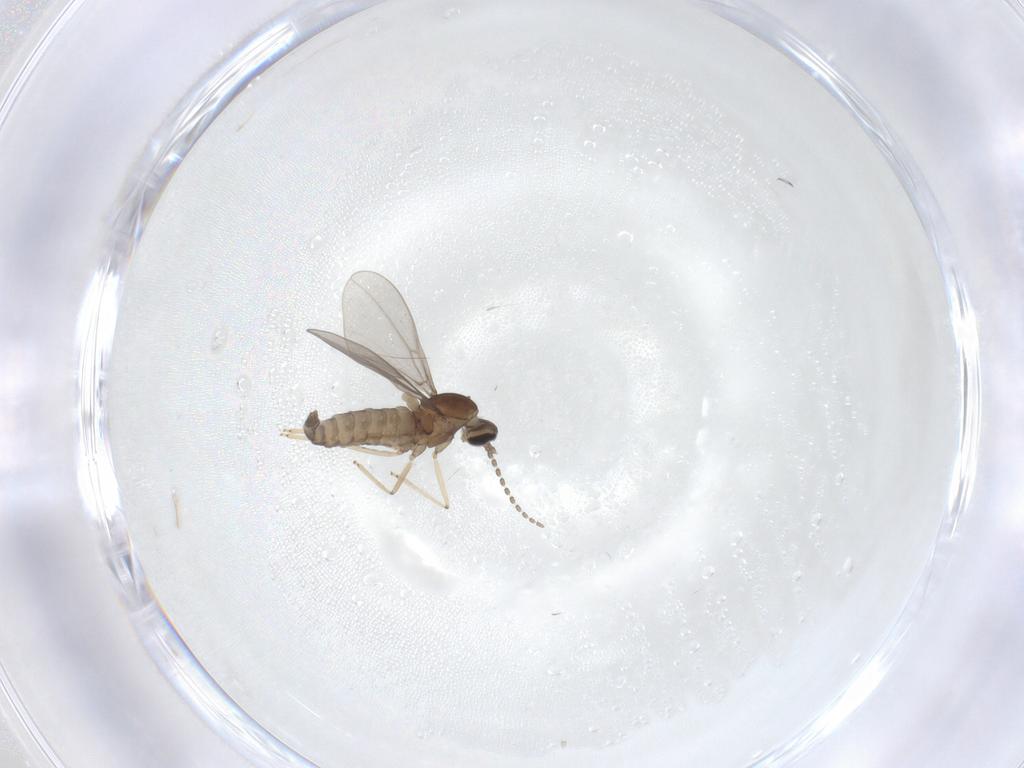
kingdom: Animalia
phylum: Arthropoda
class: Insecta
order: Diptera
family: Cecidomyiidae
